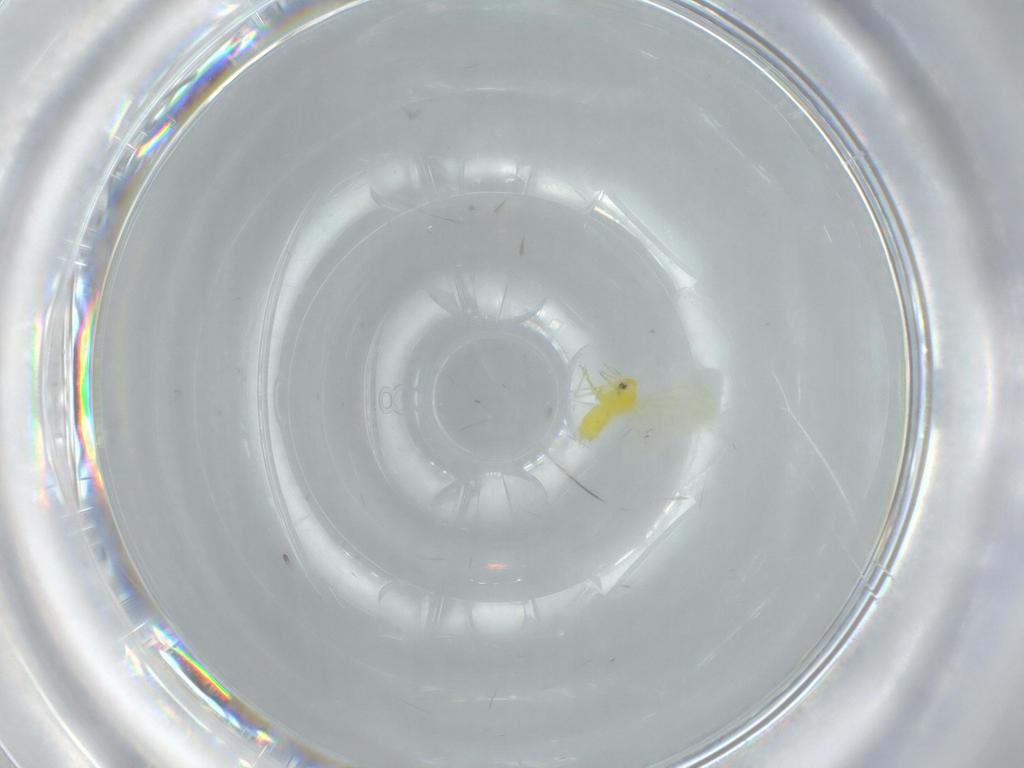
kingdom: Animalia
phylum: Arthropoda
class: Insecta
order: Hemiptera
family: Aleyrodidae
